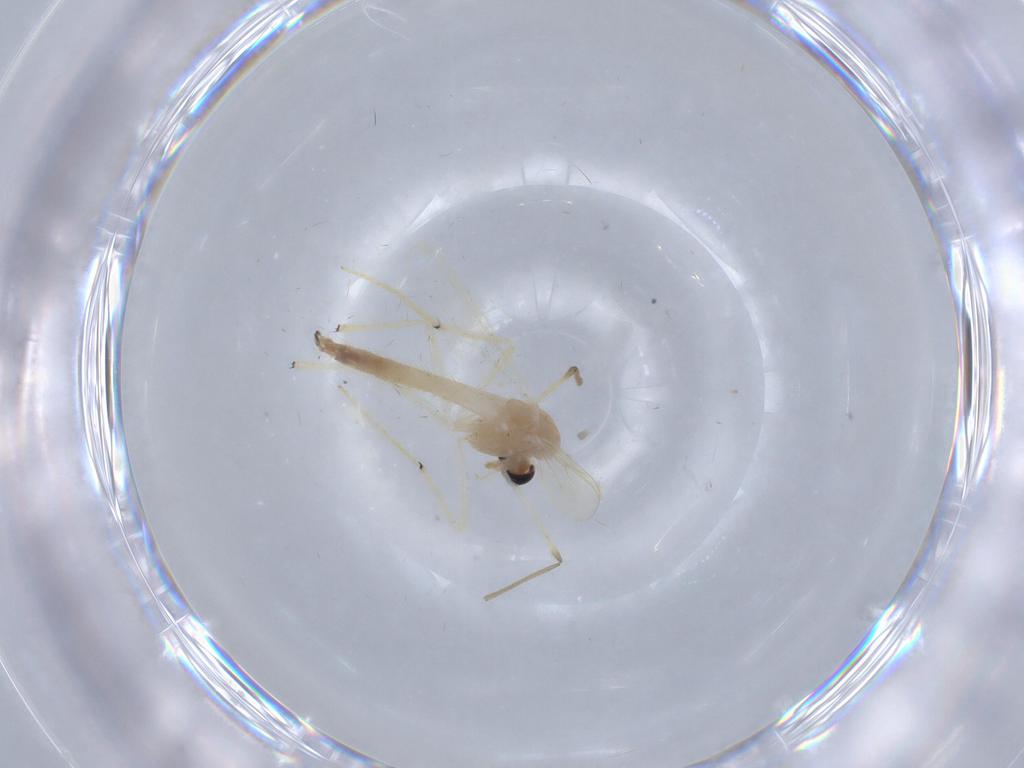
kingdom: Animalia
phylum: Arthropoda
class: Insecta
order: Diptera
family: Chironomidae
